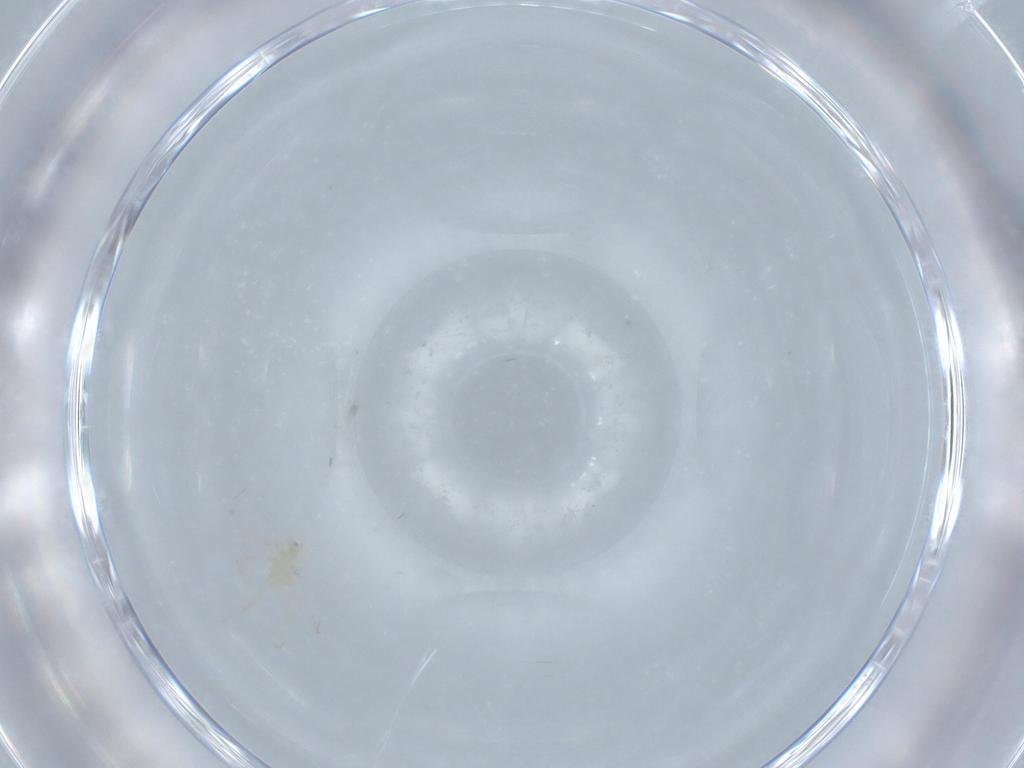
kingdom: Animalia
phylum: Arthropoda
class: Arachnida
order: Trombidiformes
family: Erythraeidae
